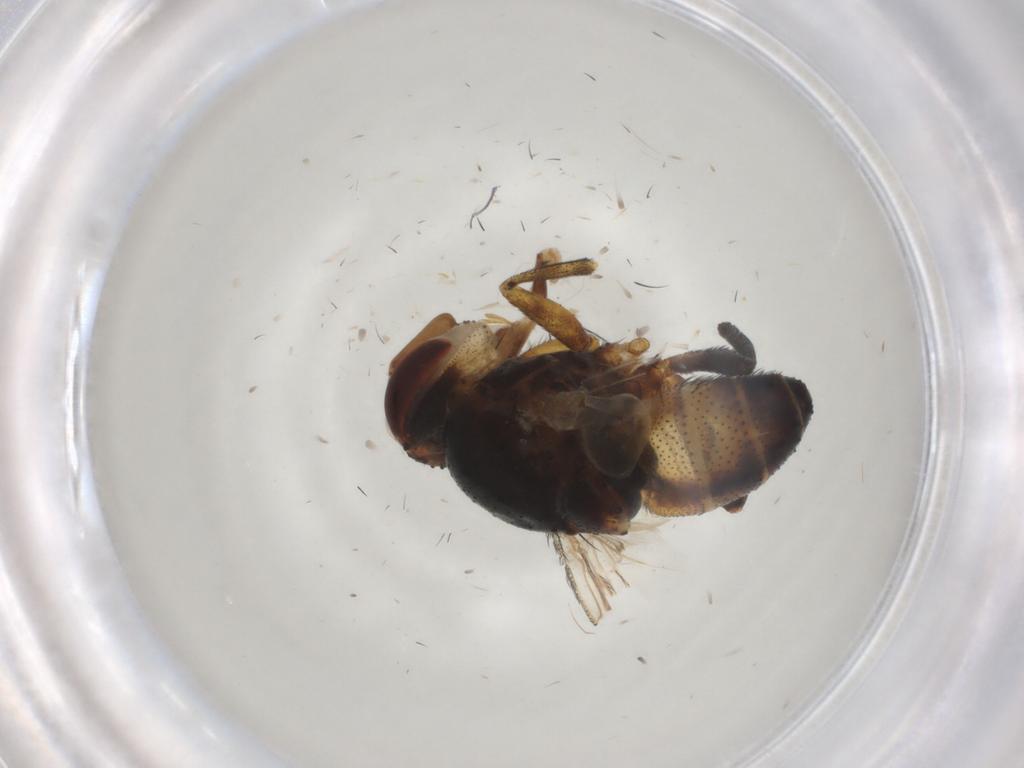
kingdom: Animalia
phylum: Arthropoda
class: Insecta
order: Diptera
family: Glossinidae
